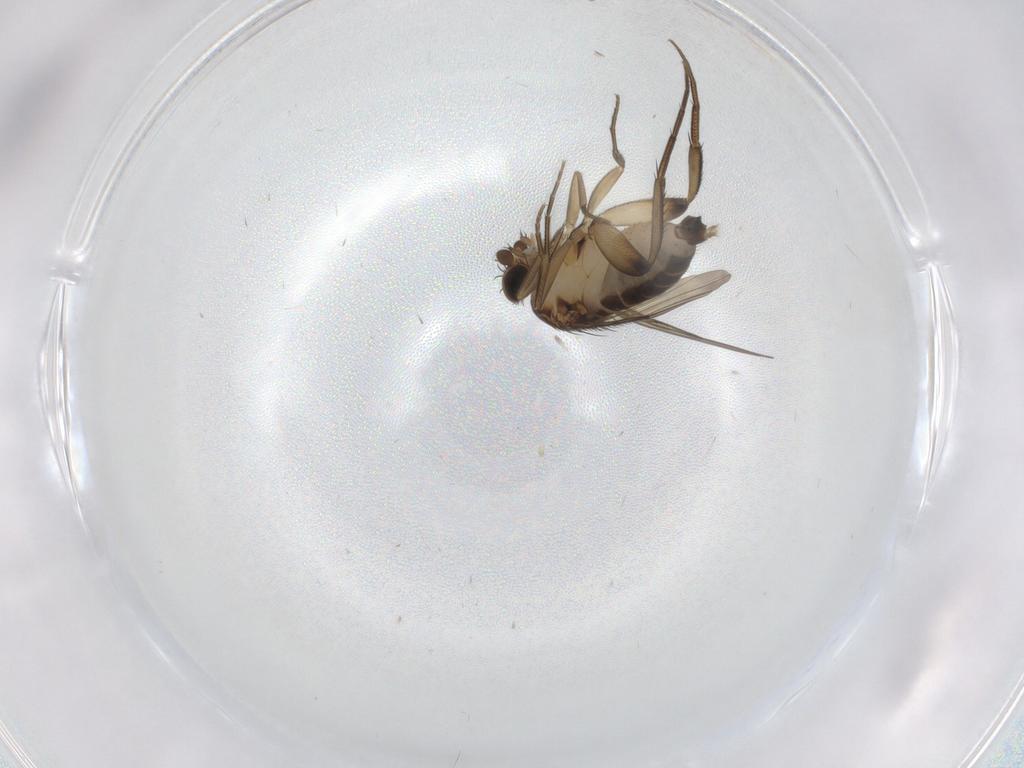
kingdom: Animalia
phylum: Arthropoda
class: Insecta
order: Diptera
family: Phoridae
